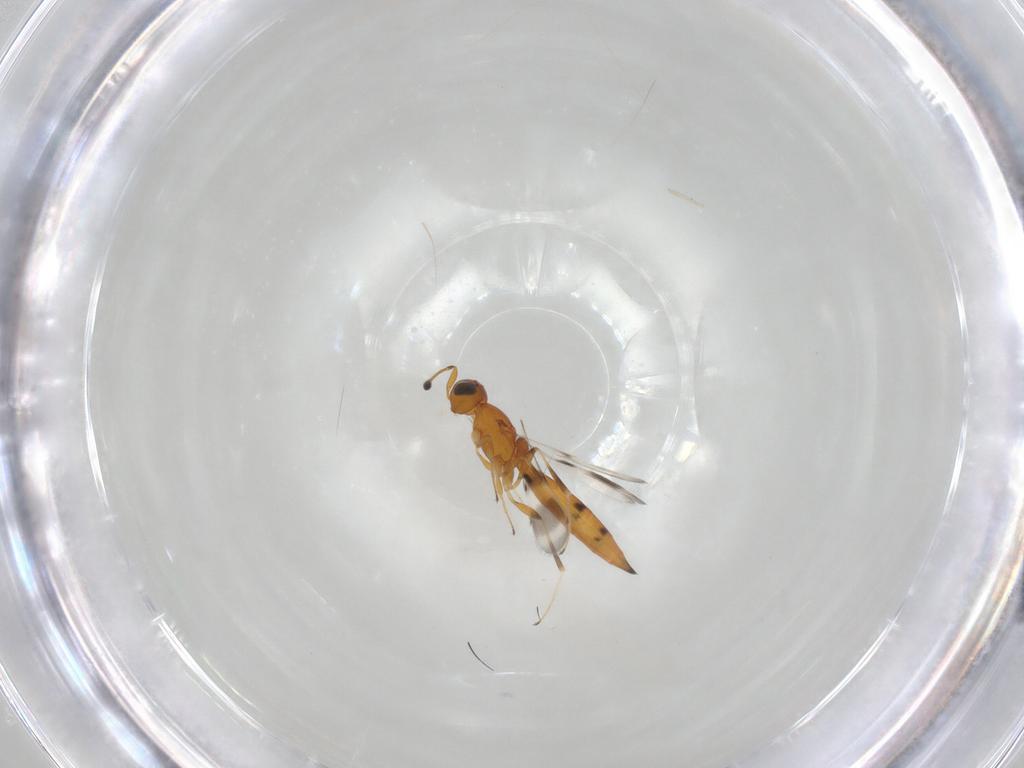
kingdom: Animalia
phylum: Arthropoda
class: Insecta
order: Hymenoptera
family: Scelionidae
